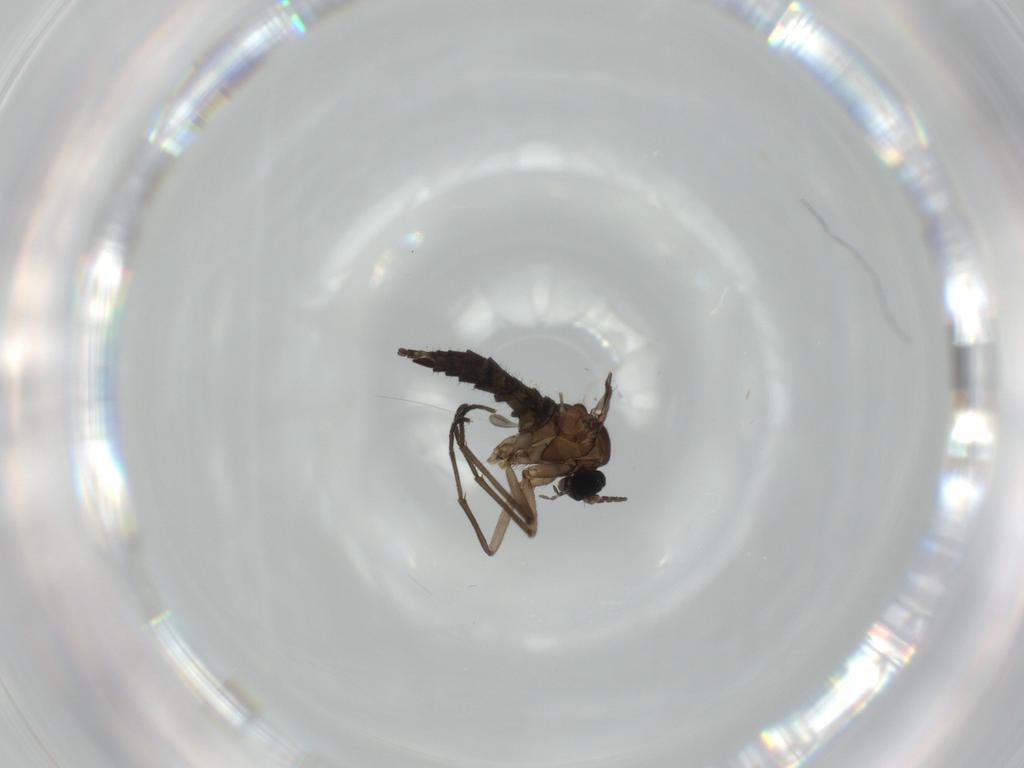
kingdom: Animalia
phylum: Arthropoda
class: Insecta
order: Diptera
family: Sciaridae
